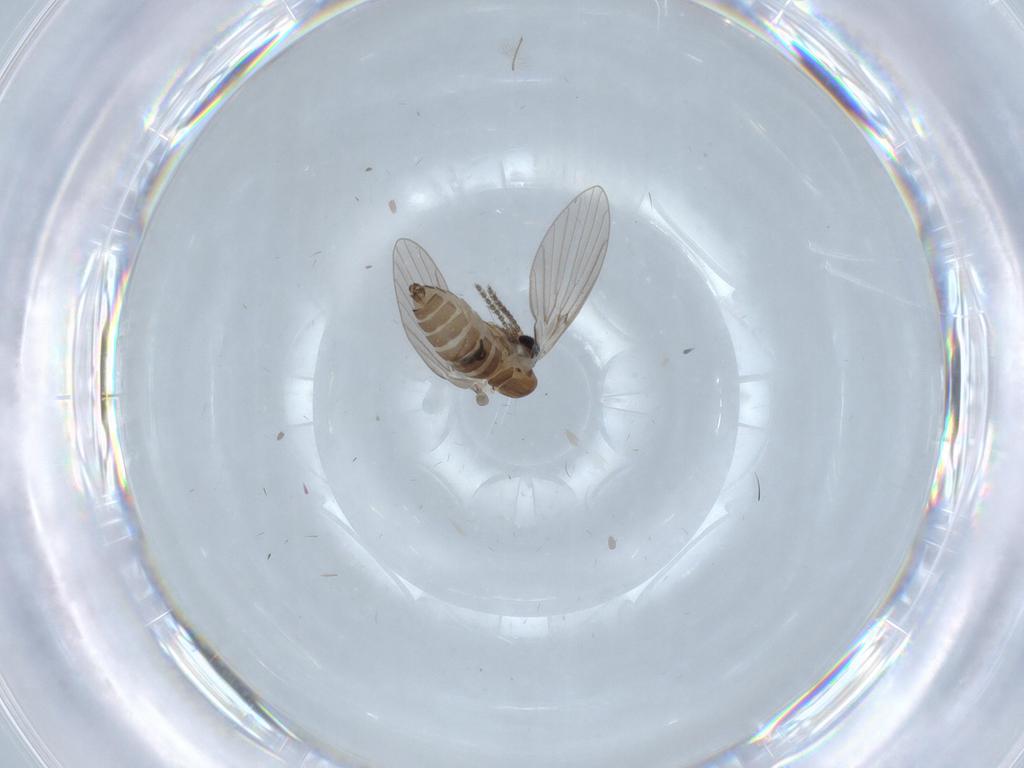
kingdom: Animalia
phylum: Arthropoda
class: Insecta
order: Diptera
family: Chironomidae
